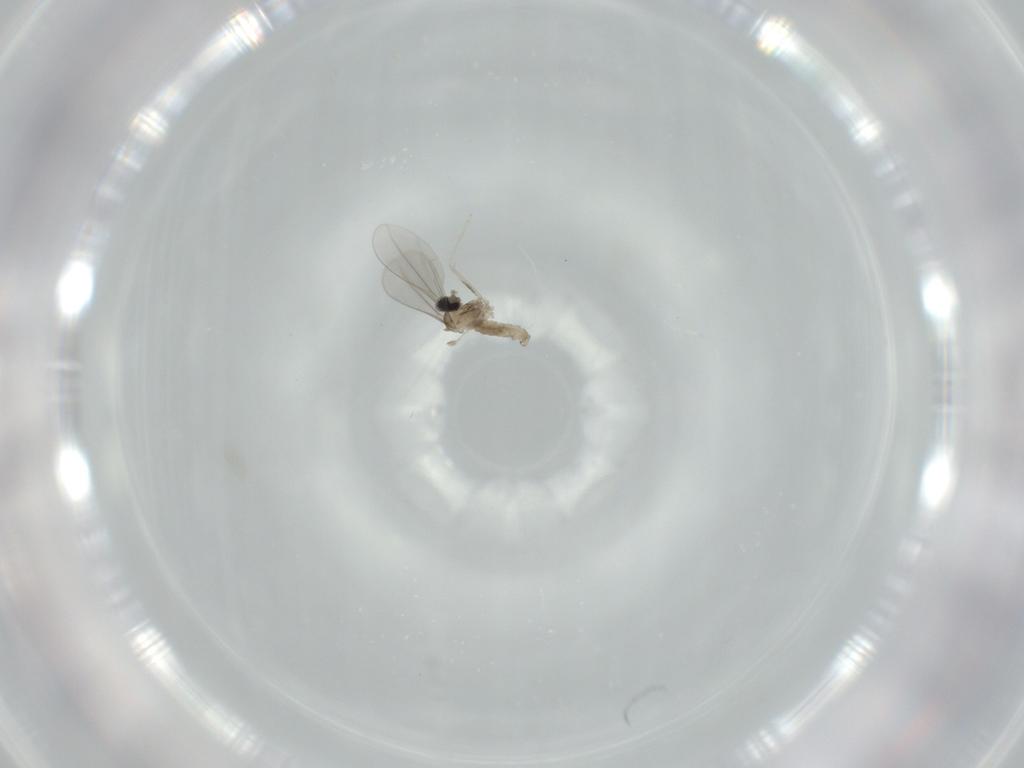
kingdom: Animalia
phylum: Arthropoda
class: Insecta
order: Diptera
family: Cecidomyiidae
